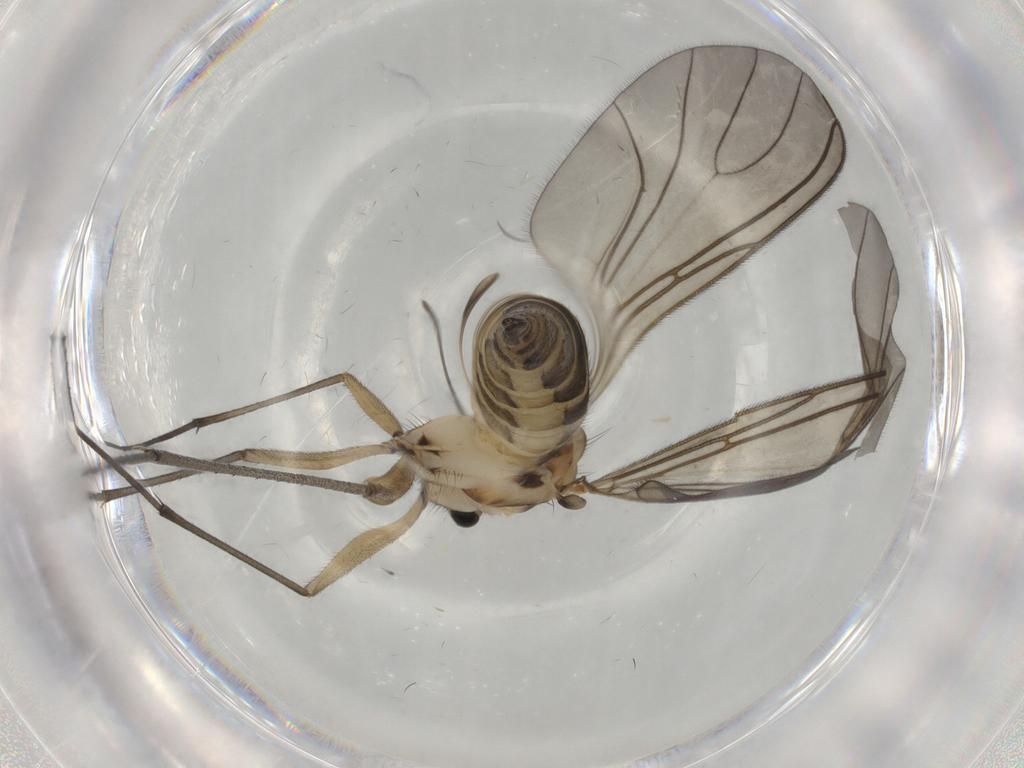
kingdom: Animalia
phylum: Arthropoda
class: Insecta
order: Diptera
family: Sciaridae
